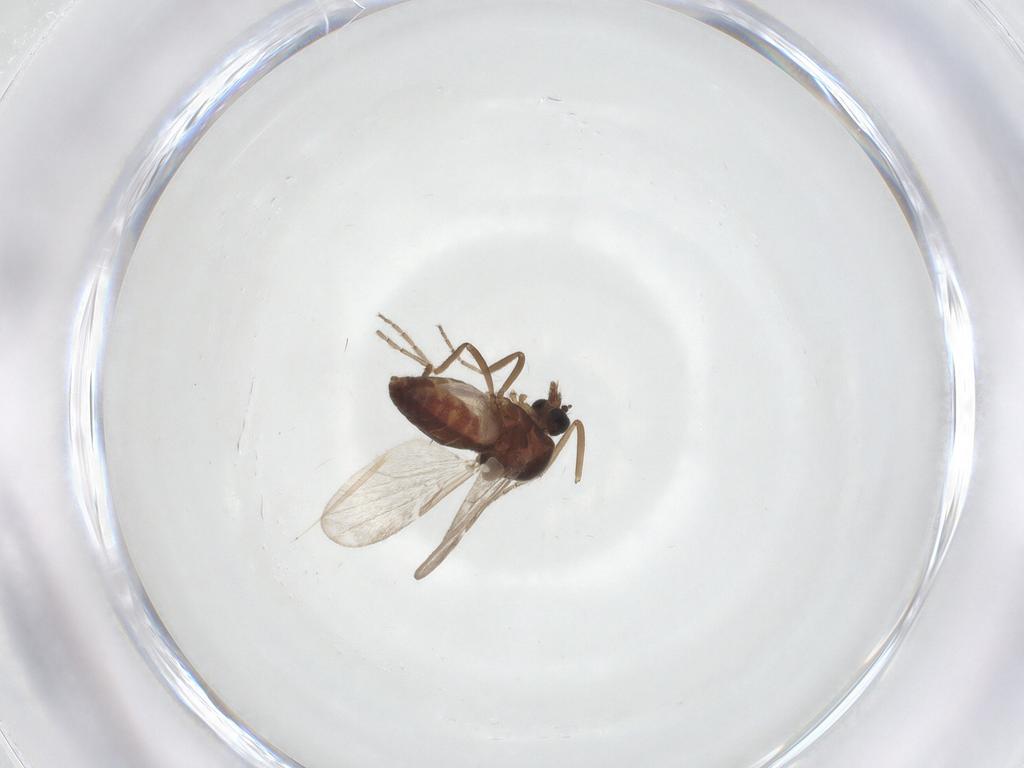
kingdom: Animalia
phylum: Arthropoda
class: Insecta
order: Diptera
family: Ceratopogonidae
